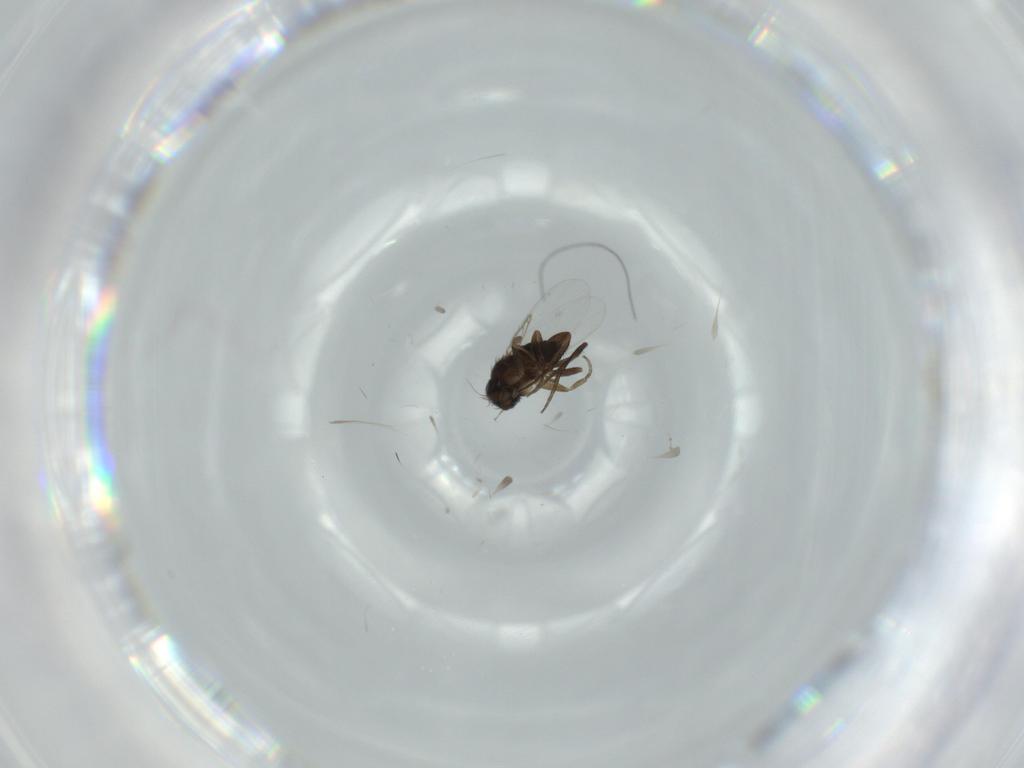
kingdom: Animalia
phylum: Arthropoda
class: Insecta
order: Diptera
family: Phoridae
